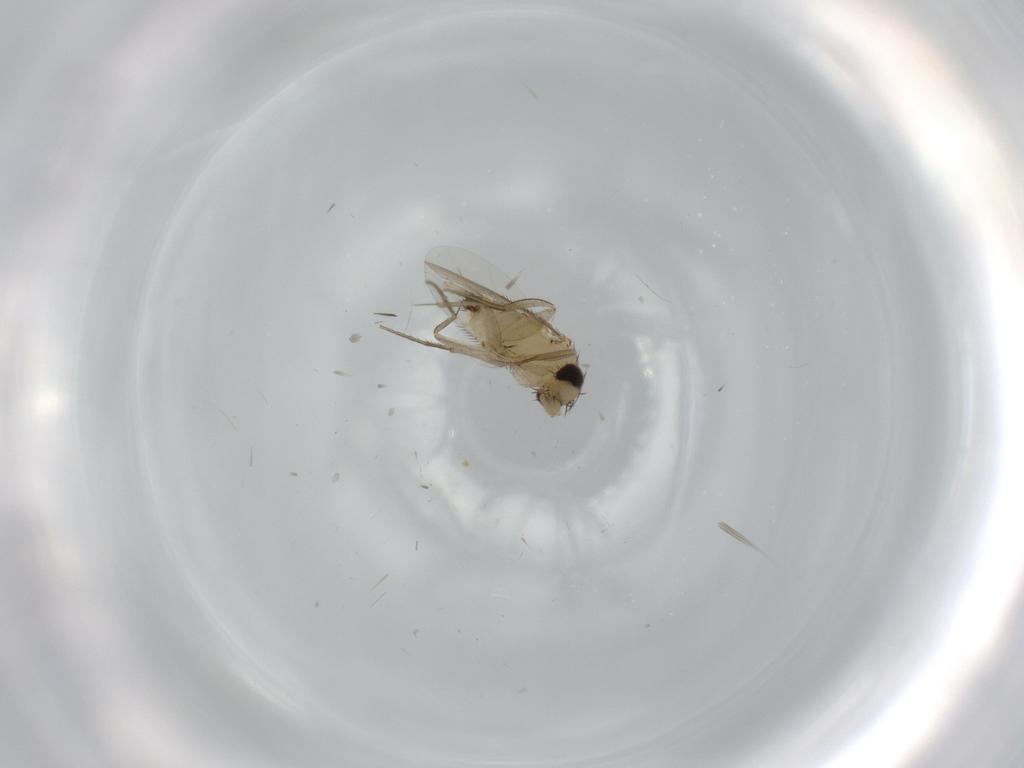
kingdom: Animalia
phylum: Arthropoda
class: Insecta
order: Diptera
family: Phoridae
